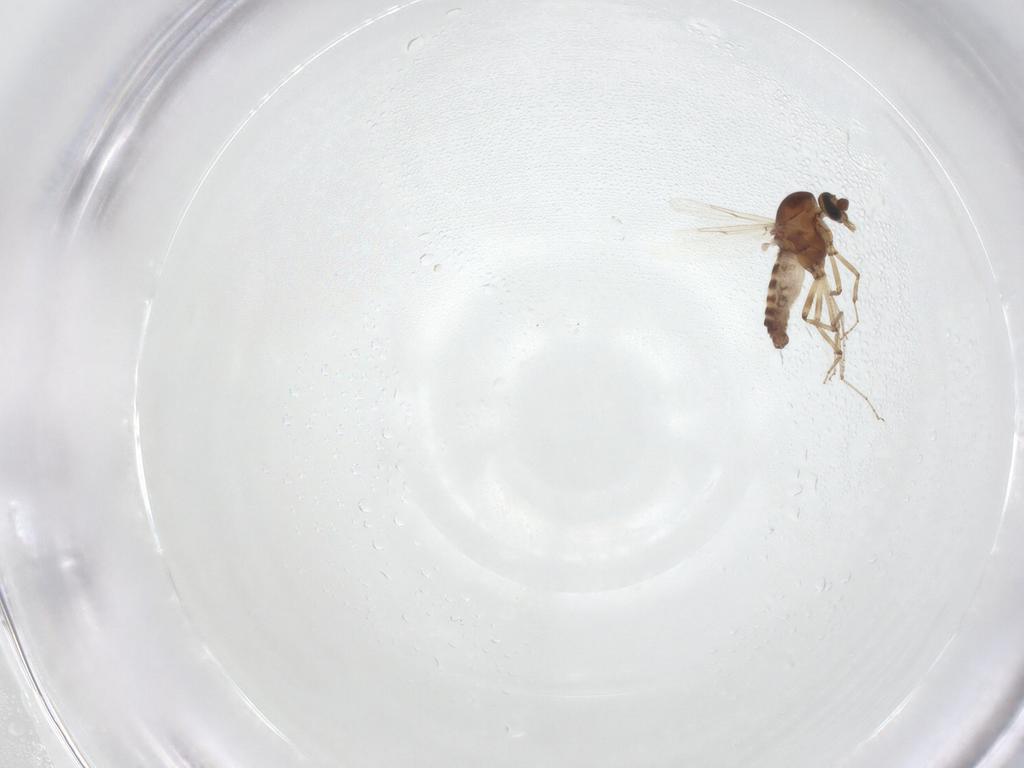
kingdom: Animalia
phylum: Arthropoda
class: Insecta
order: Diptera
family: Ceratopogonidae
